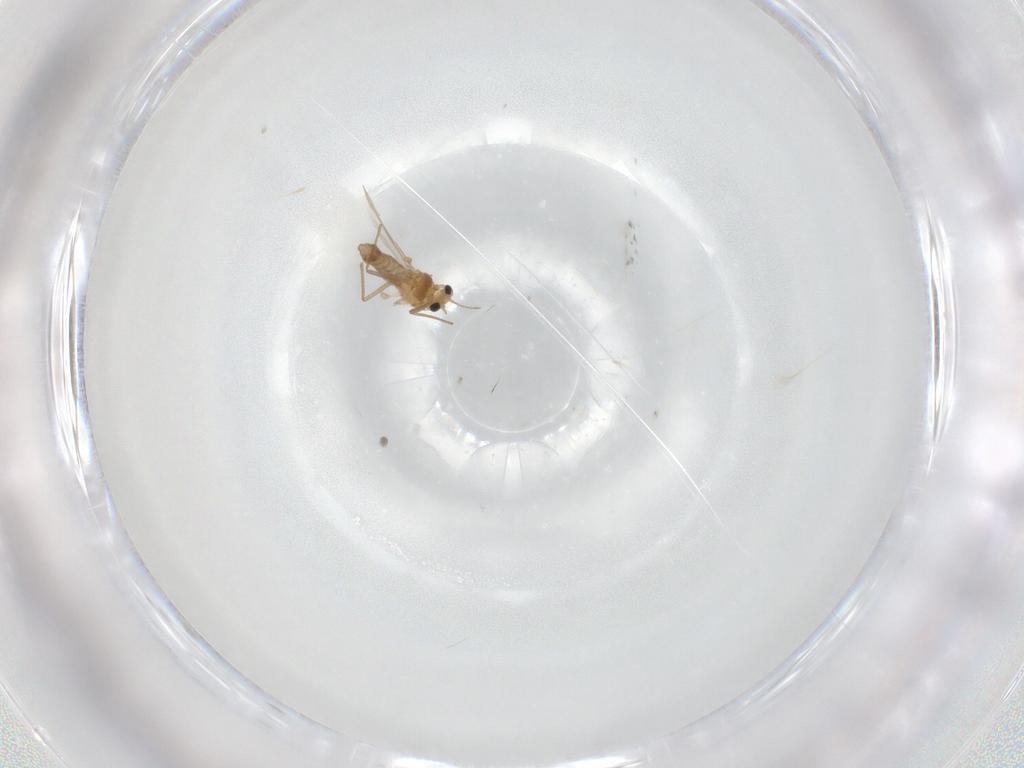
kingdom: Animalia
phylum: Arthropoda
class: Insecta
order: Diptera
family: Chironomidae
